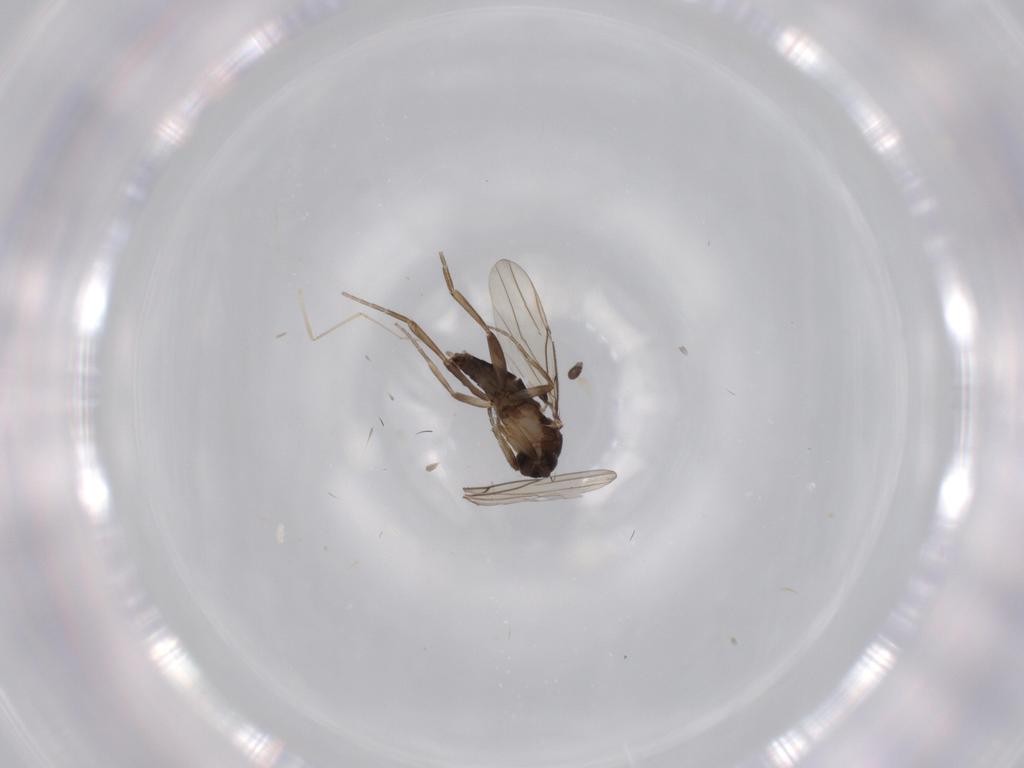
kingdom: Animalia
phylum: Arthropoda
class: Insecta
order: Diptera
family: Phoridae
